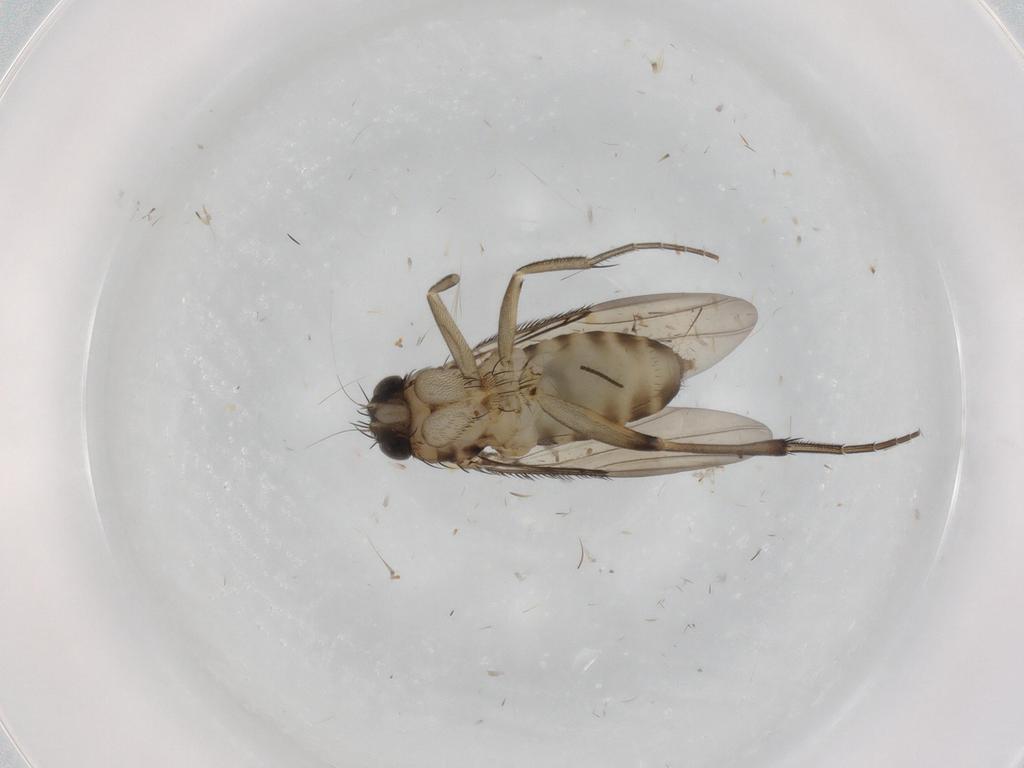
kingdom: Animalia
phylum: Arthropoda
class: Insecta
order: Diptera
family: Phoridae
